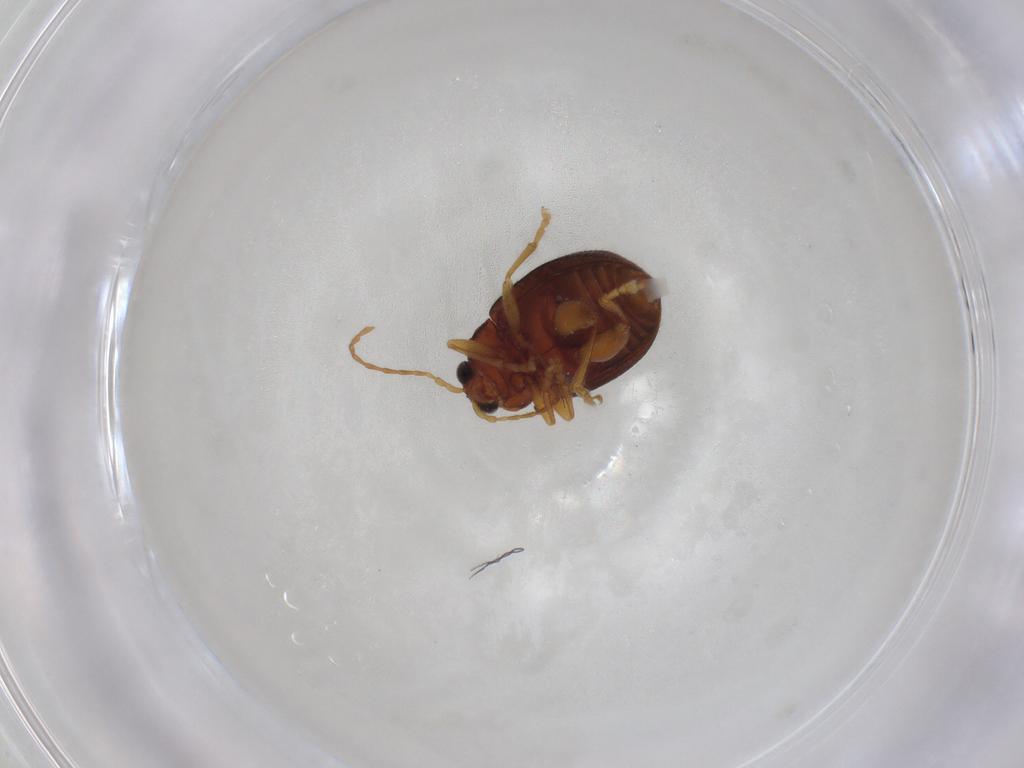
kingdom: Animalia
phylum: Arthropoda
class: Insecta
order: Coleoptera
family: Chrysomelidae
